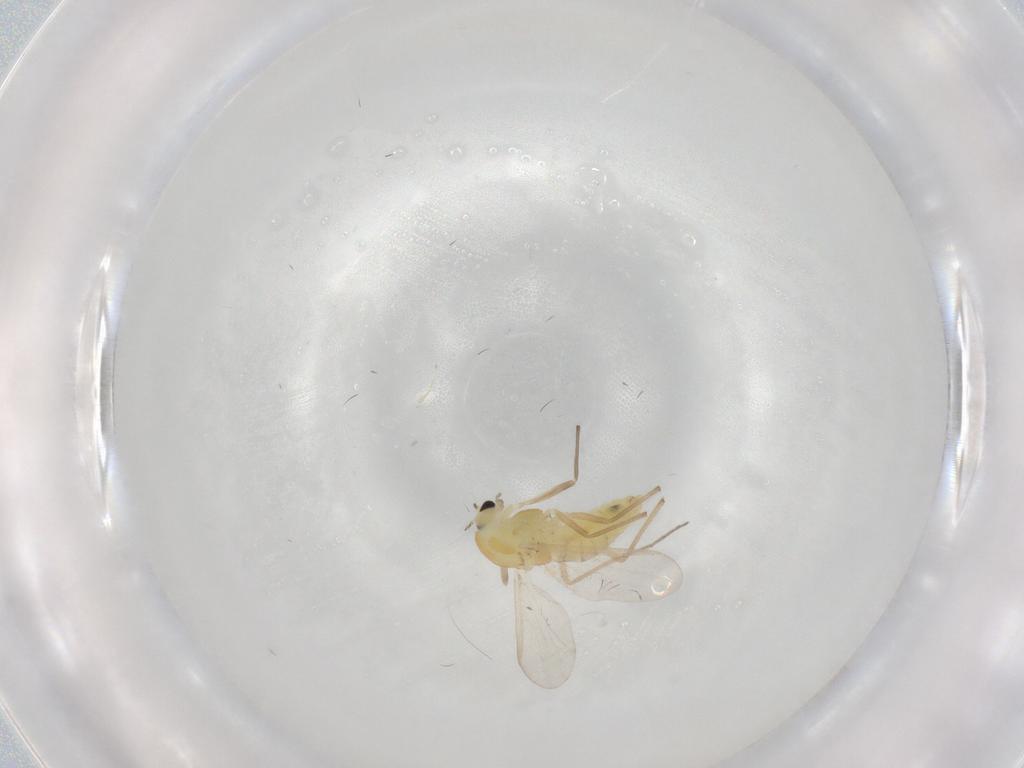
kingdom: Animalia
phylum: Arthropoda
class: Insecta
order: Diptera
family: Chironomidae
